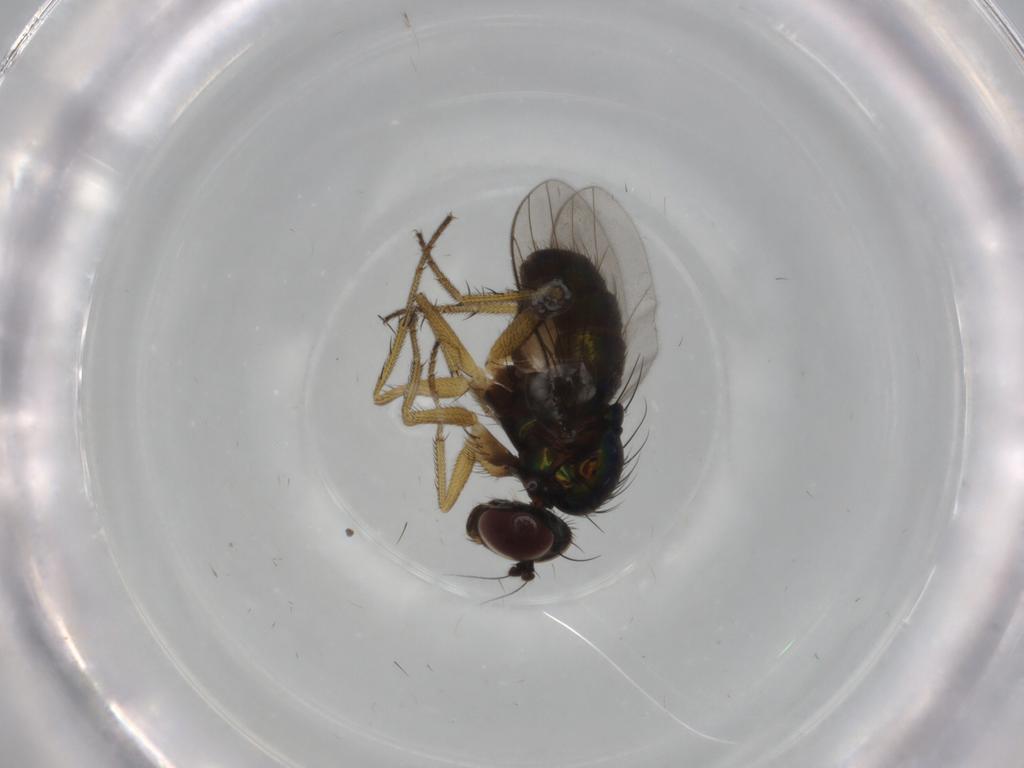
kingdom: Animalia
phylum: Arthropoda
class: Insecta
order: Diptera
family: Dolichopodidae
